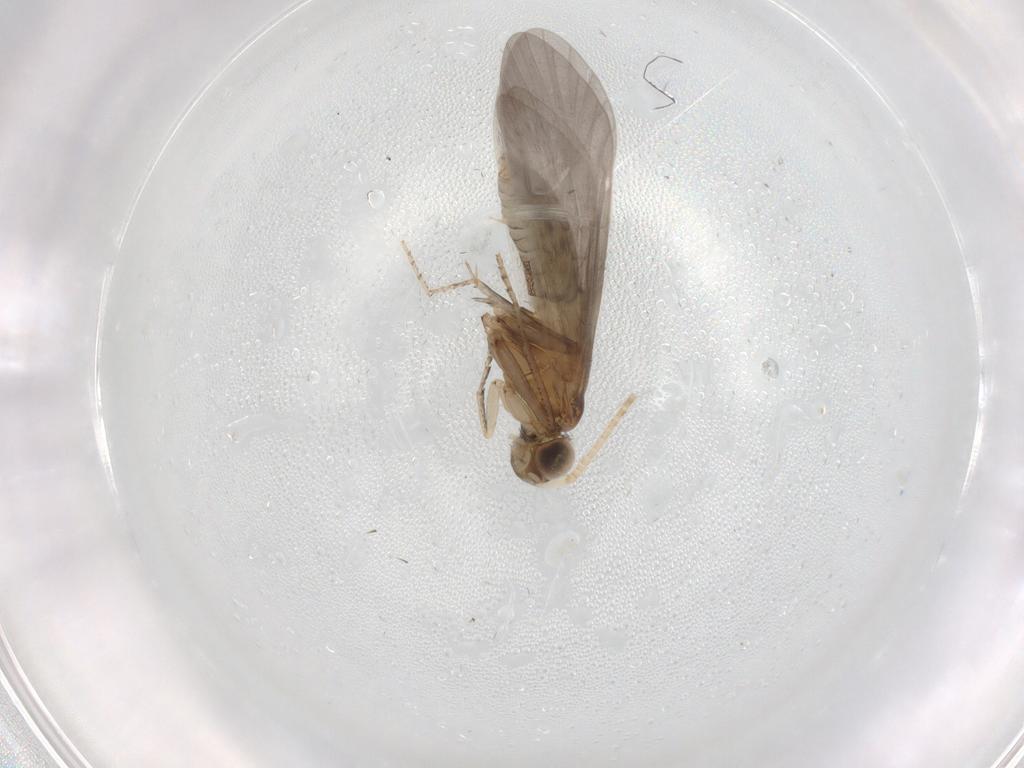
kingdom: Animalia
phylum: Arthropoda
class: Insecta
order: Trichoptera
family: Helicopsychidae
